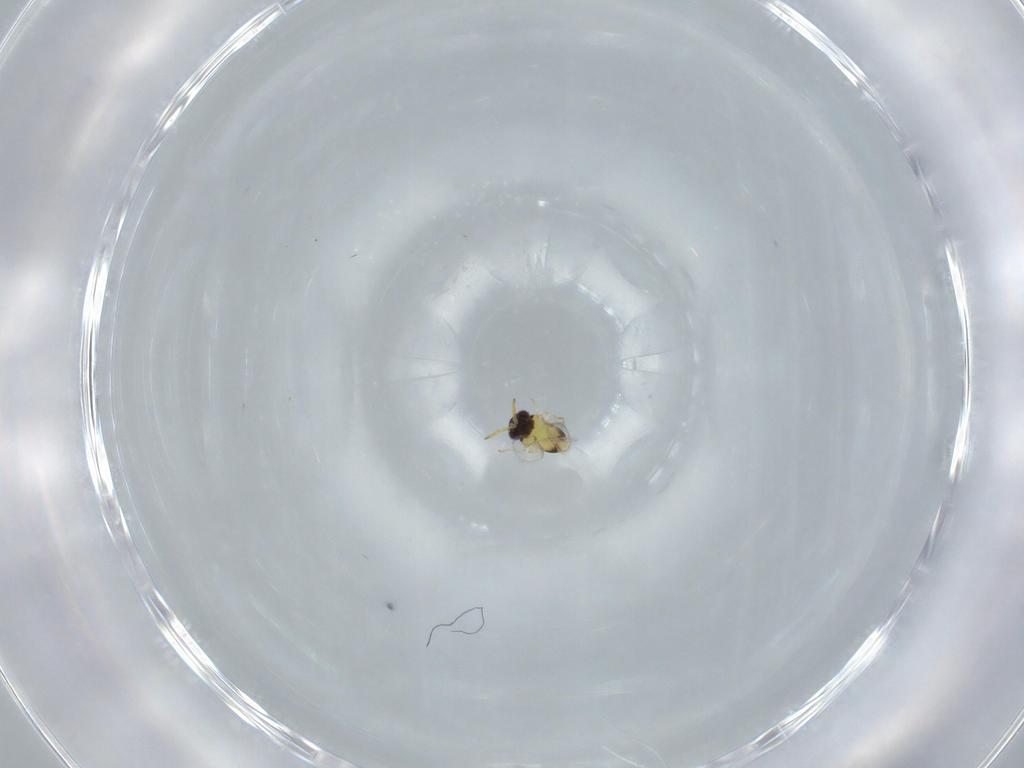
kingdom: Animalia
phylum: Arthropoda
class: Insecta
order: Hymenoptera
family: Aphelinidae
